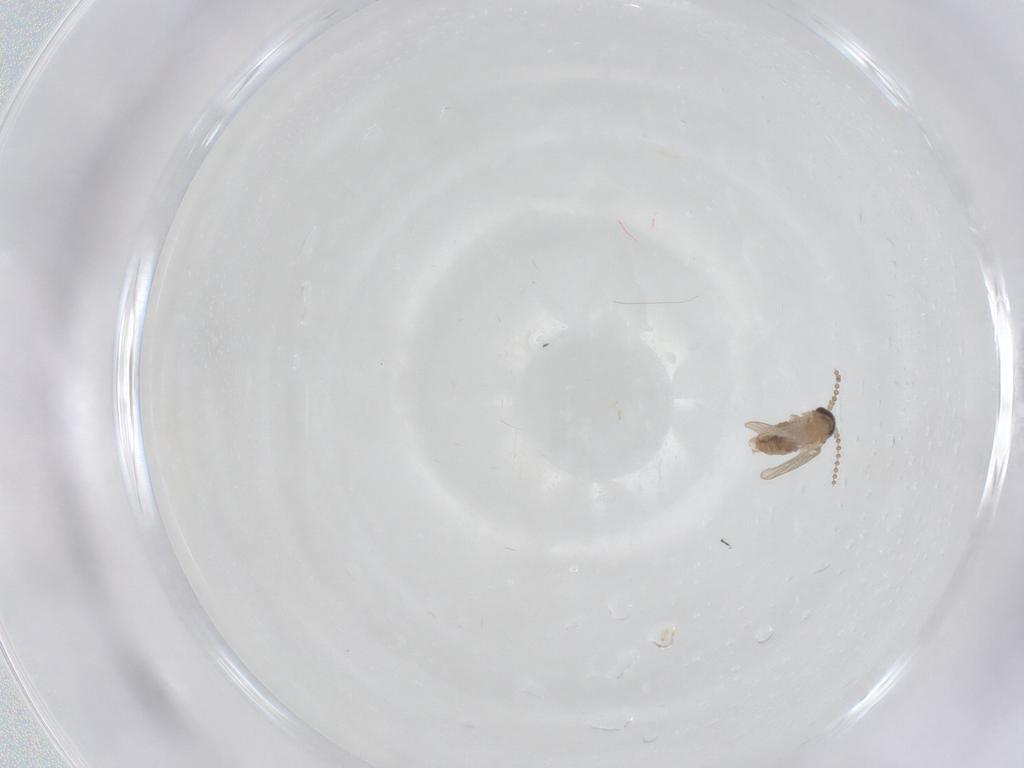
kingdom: Animalia
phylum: Arthropoda
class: Insecta
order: Diptera
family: Psychodidae
